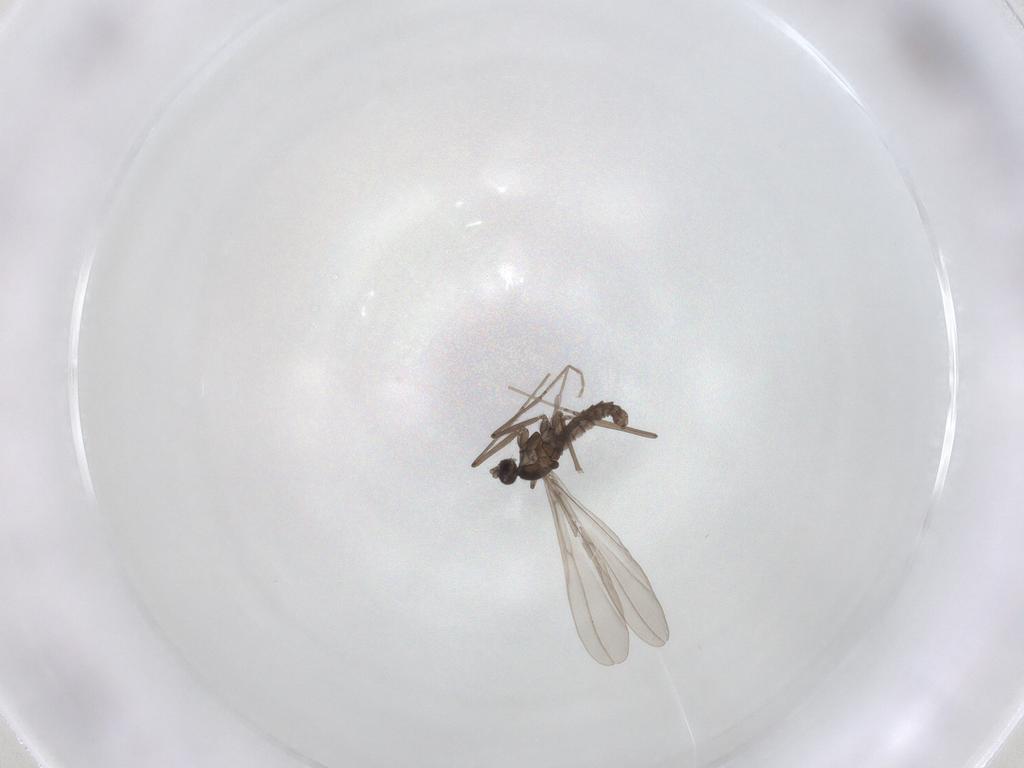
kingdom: Animalia
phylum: Arthropoda
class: Insecta
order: Diptera
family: Cecidomyiidae
